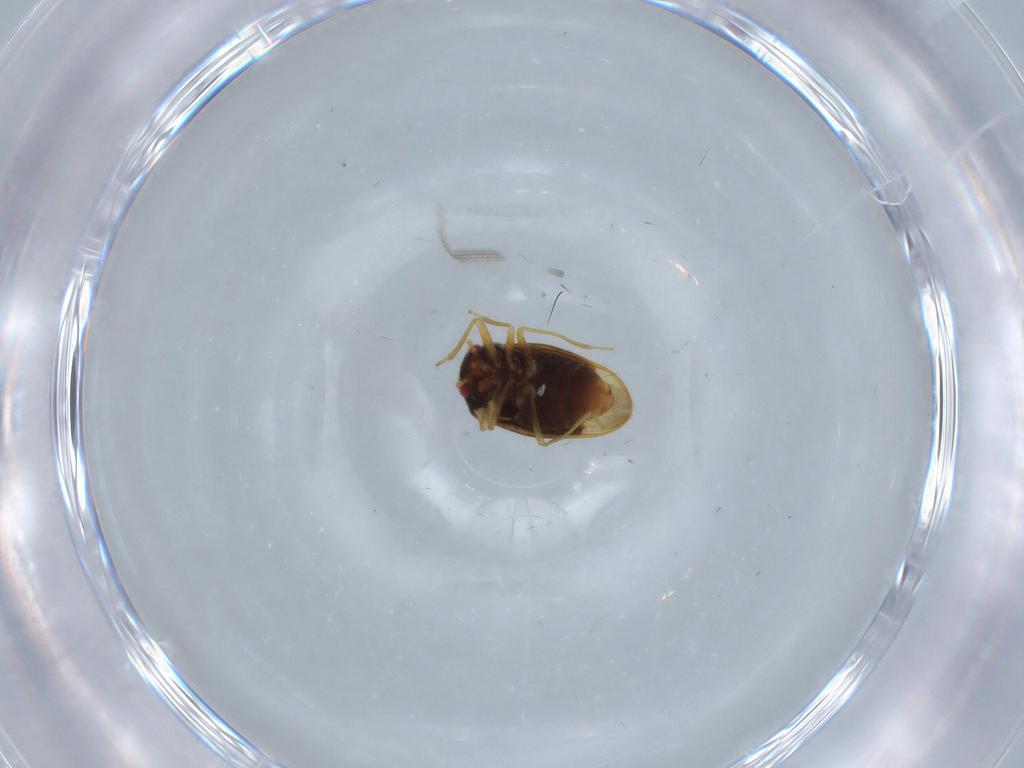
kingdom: Animalia
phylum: Arthropoda
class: Insecta
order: Hemiptera
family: Schizopteridae
